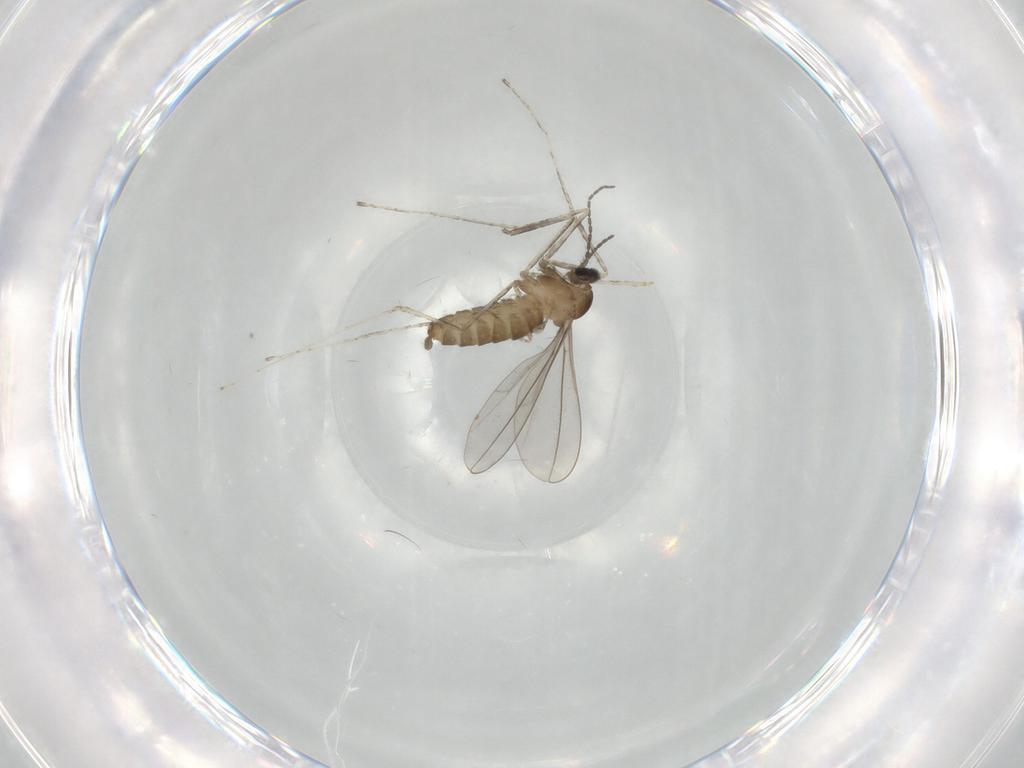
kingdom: Animalia
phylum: Arthropoda
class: Insecta
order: Diptera
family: Cecidomyiidae
